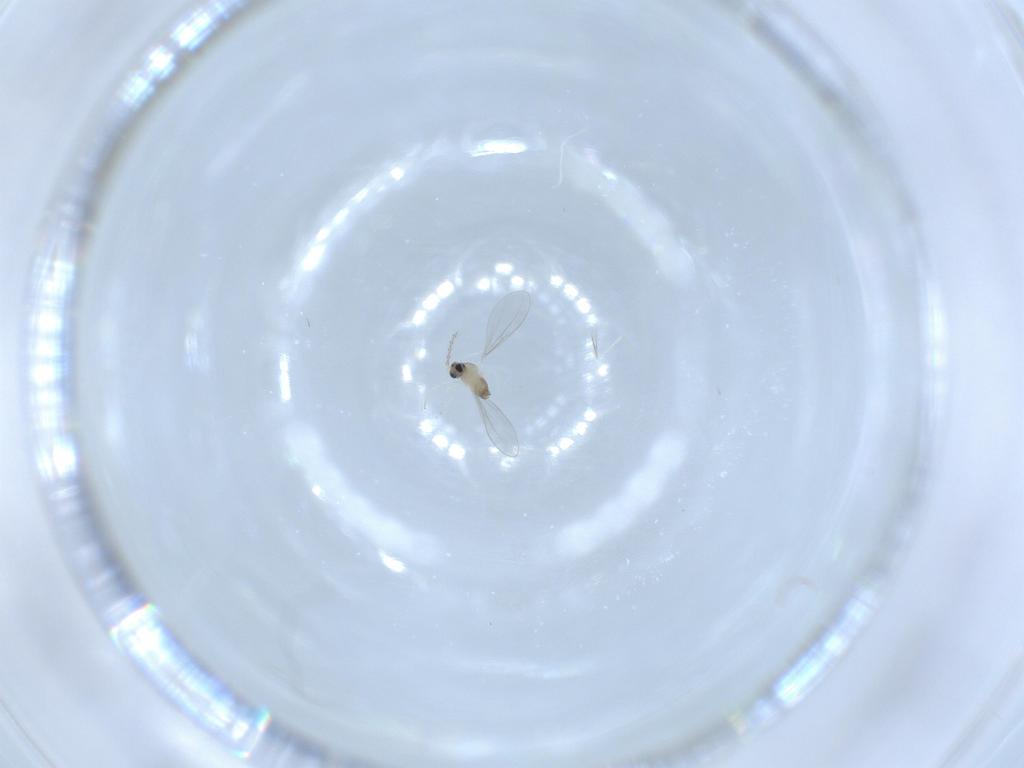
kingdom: Animalia
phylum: Arthropoda
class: Insecta
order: Diptera
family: Cecidomyiidae
